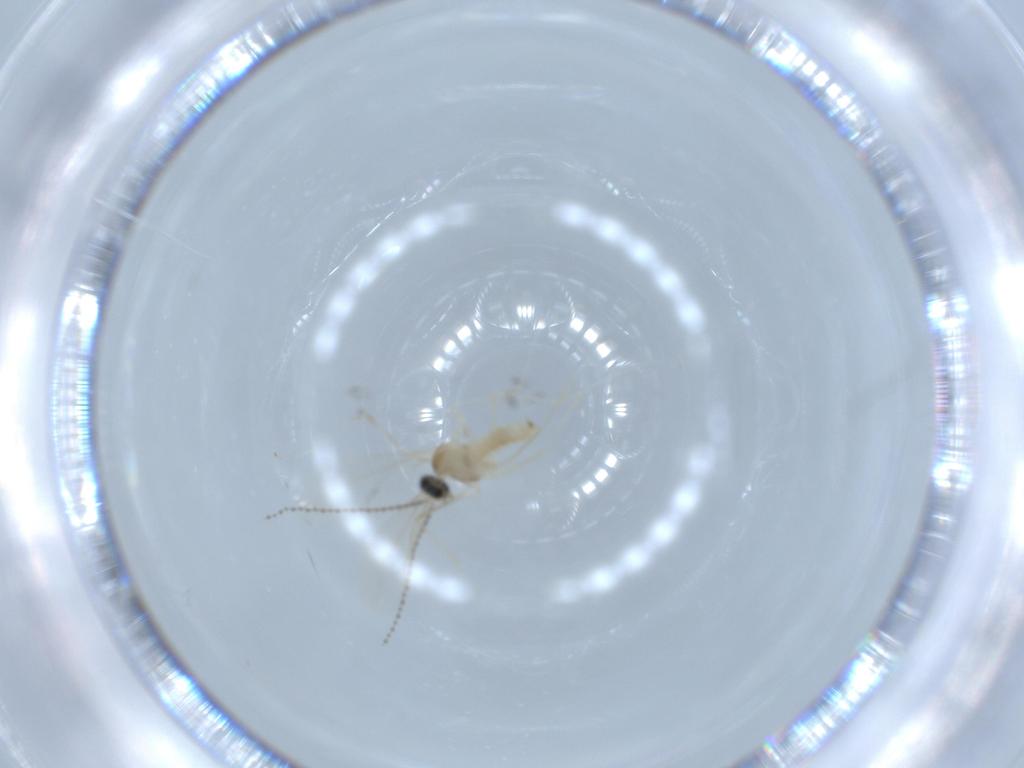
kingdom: Animalia
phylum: Arthropoda
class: Insecta
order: Diptera
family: Cecidomyiidae
